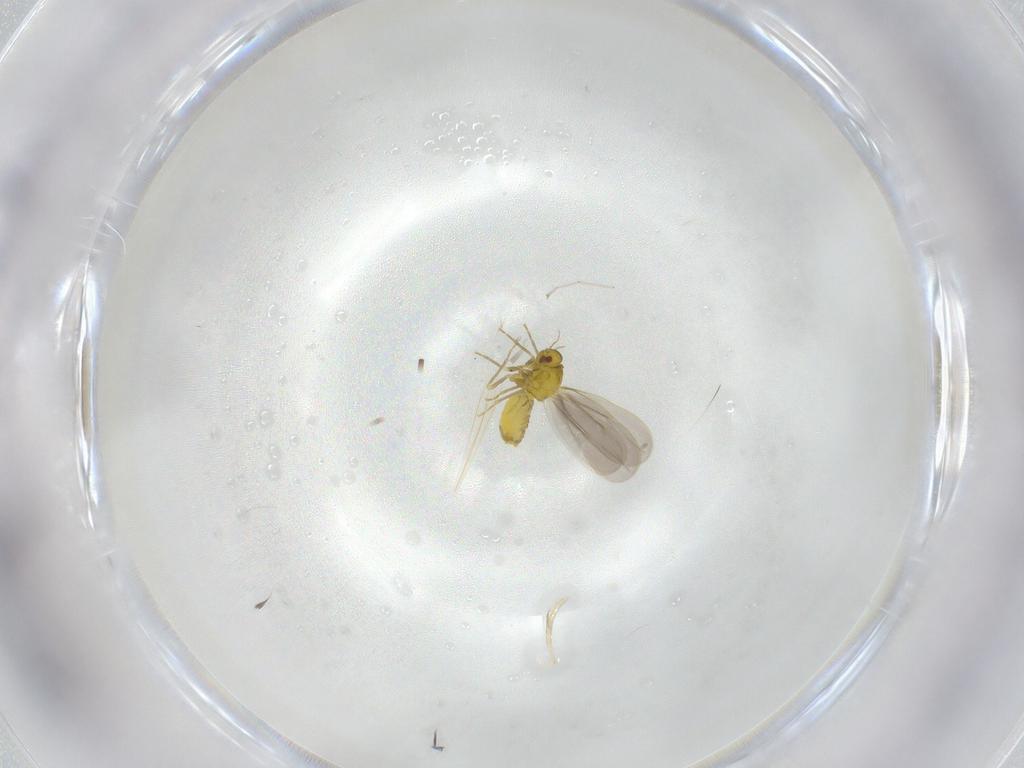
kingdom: Animalia
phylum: Arthropoda
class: Insecta
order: Hemiptera
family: Aleyrodidae
